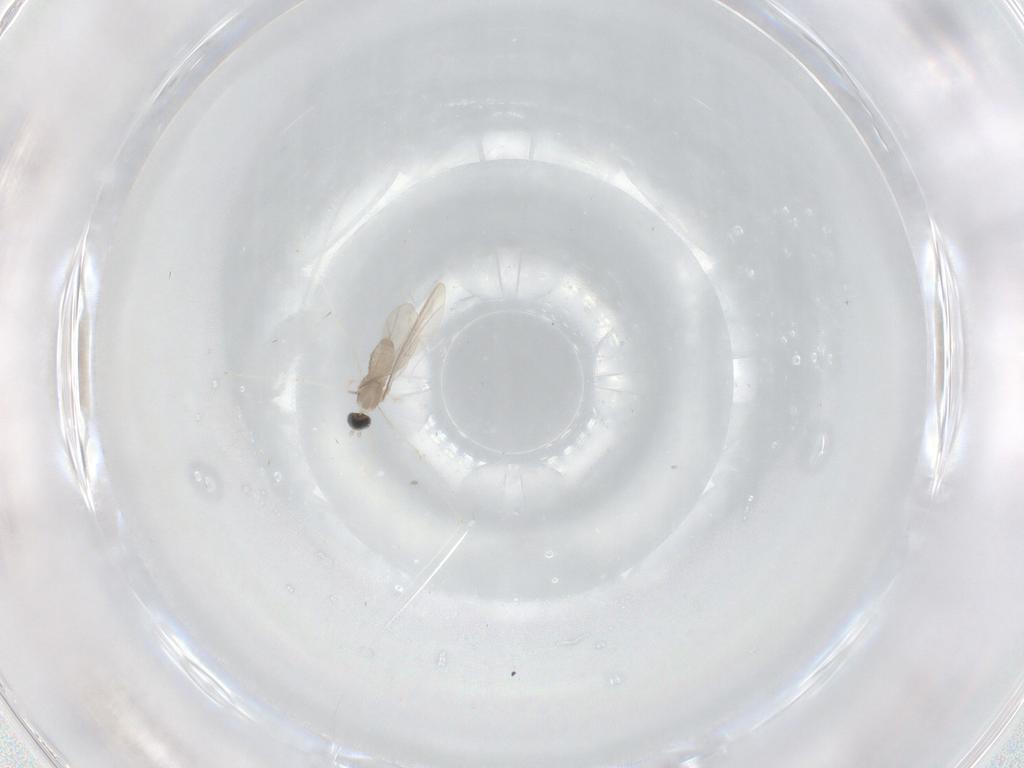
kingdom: Animalia
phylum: Arthropoda
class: Insecta
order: Diptera
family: Cecidomyiidae
